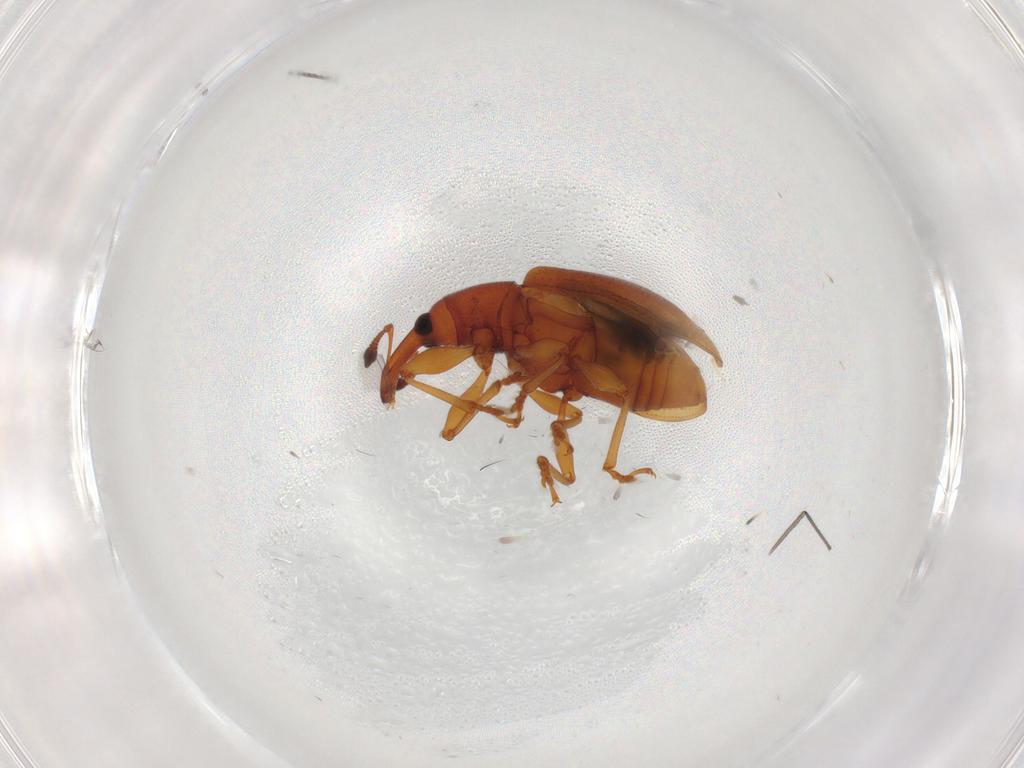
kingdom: Animalia
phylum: Arthropoda
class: Insecta
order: Coleoptera
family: Curculionidae
